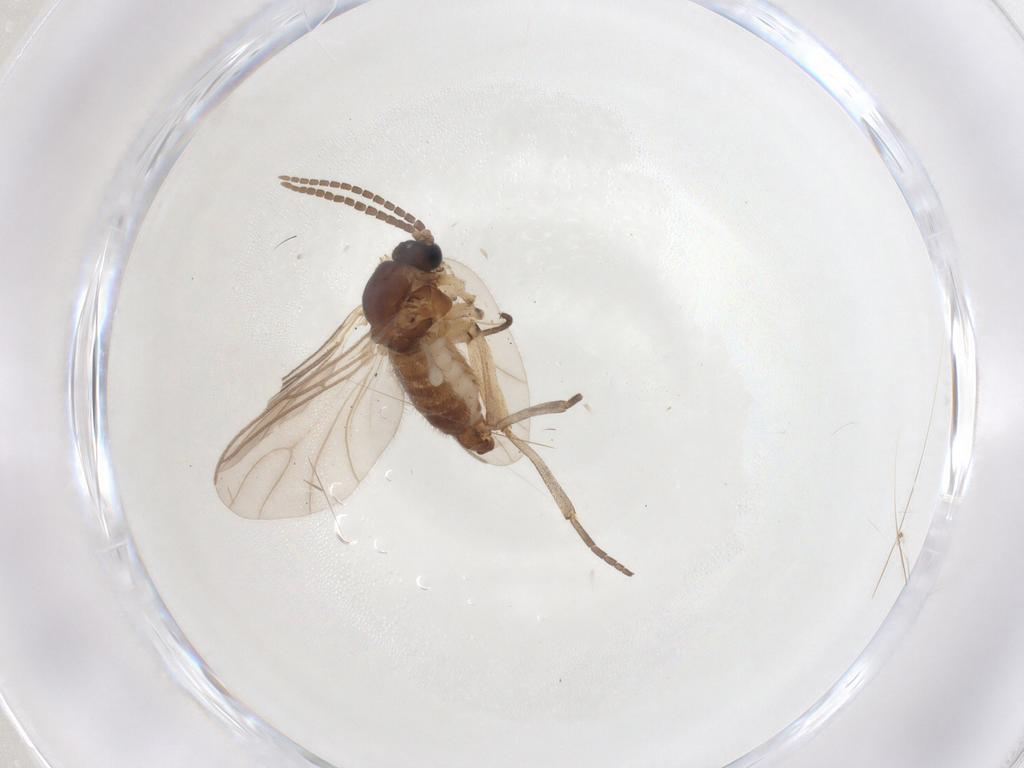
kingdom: Animalia
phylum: Arthropoda
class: Insecta
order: Diptera
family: Sciaridae
